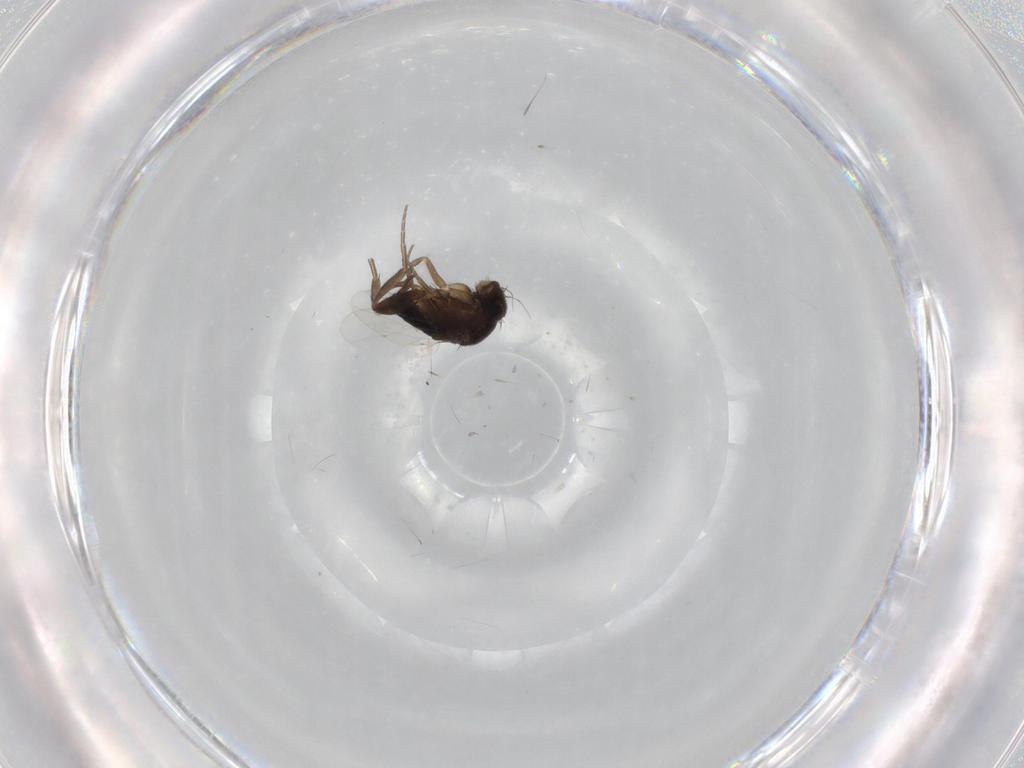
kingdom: Animalia
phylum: Arthropoda
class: Insecta
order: Diptera
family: Phoridae
